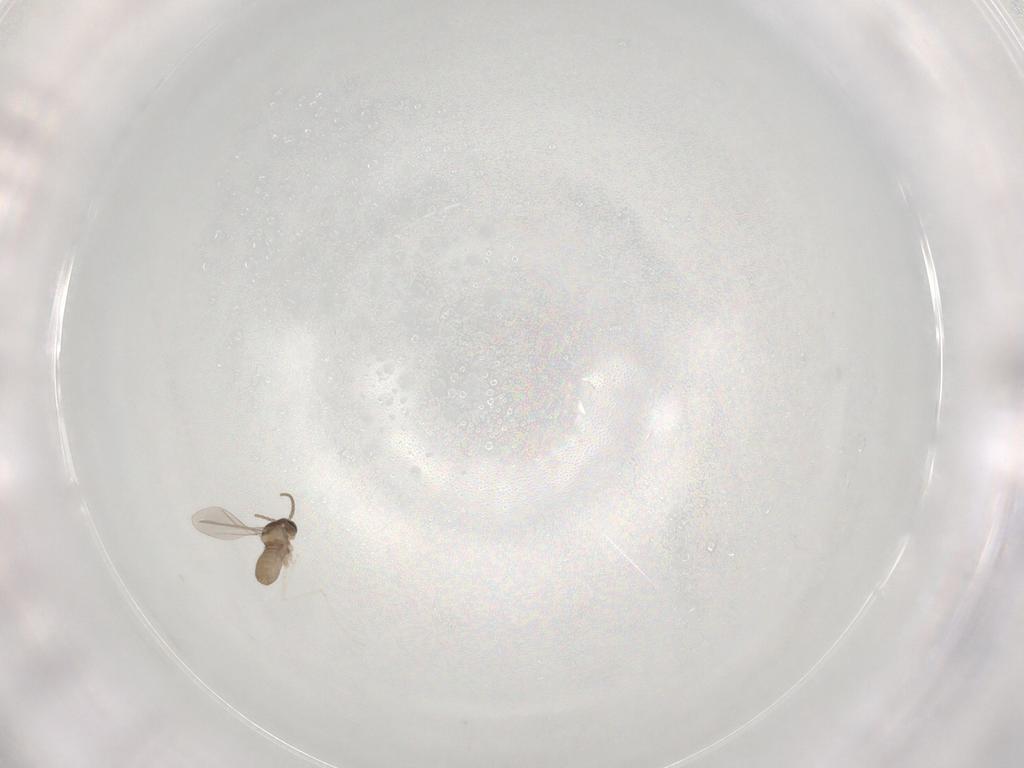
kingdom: Animalia
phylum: Arthropoda
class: Insecta
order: Diptera
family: Cecidomyiidae
